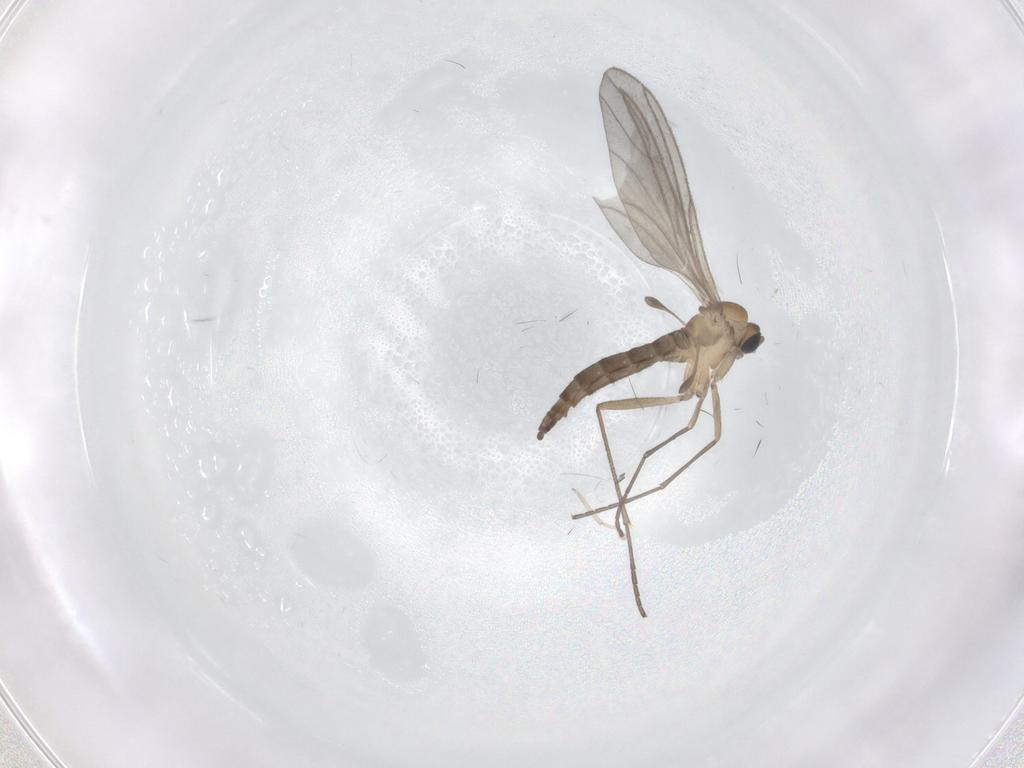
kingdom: Animalia
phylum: Arthropoda
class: Insecta
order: Diptera
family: Sciaridae
